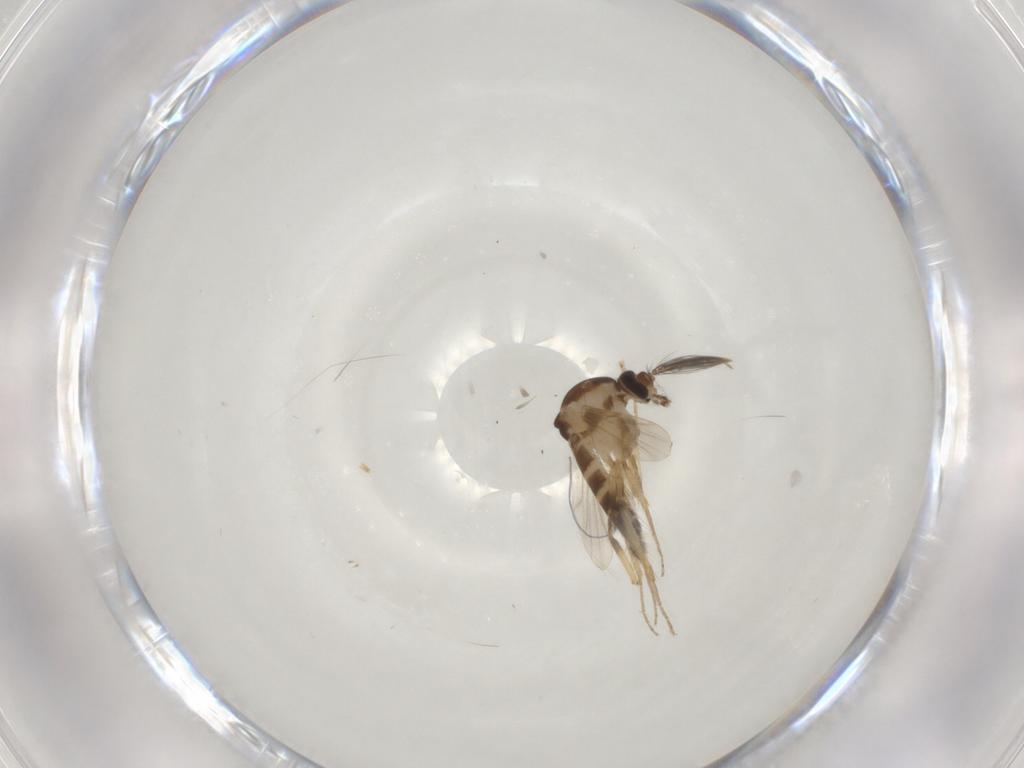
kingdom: Animalia
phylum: Arthropoda
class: Insecta
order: Diptera
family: Ceratopogonidae
